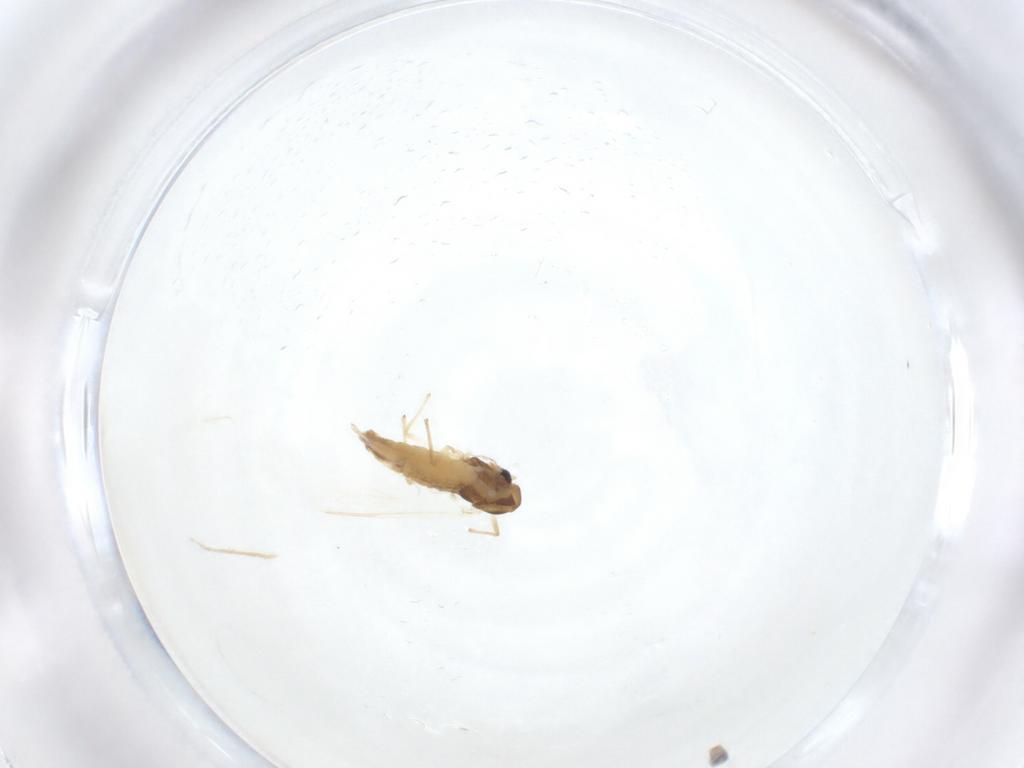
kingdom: Animalia
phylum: Arthropoda
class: Insecta
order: Diptera
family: Chironomidae
